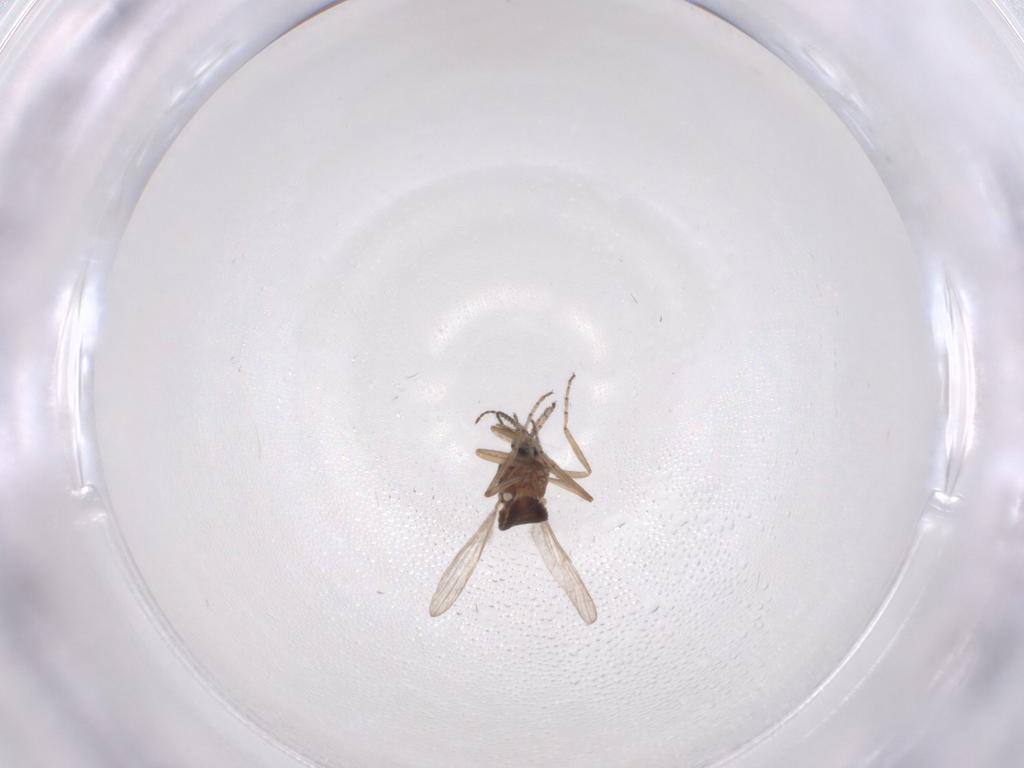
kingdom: Animalia
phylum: Arthropoda
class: Insecta
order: Diptera
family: Ceratopogonidae
